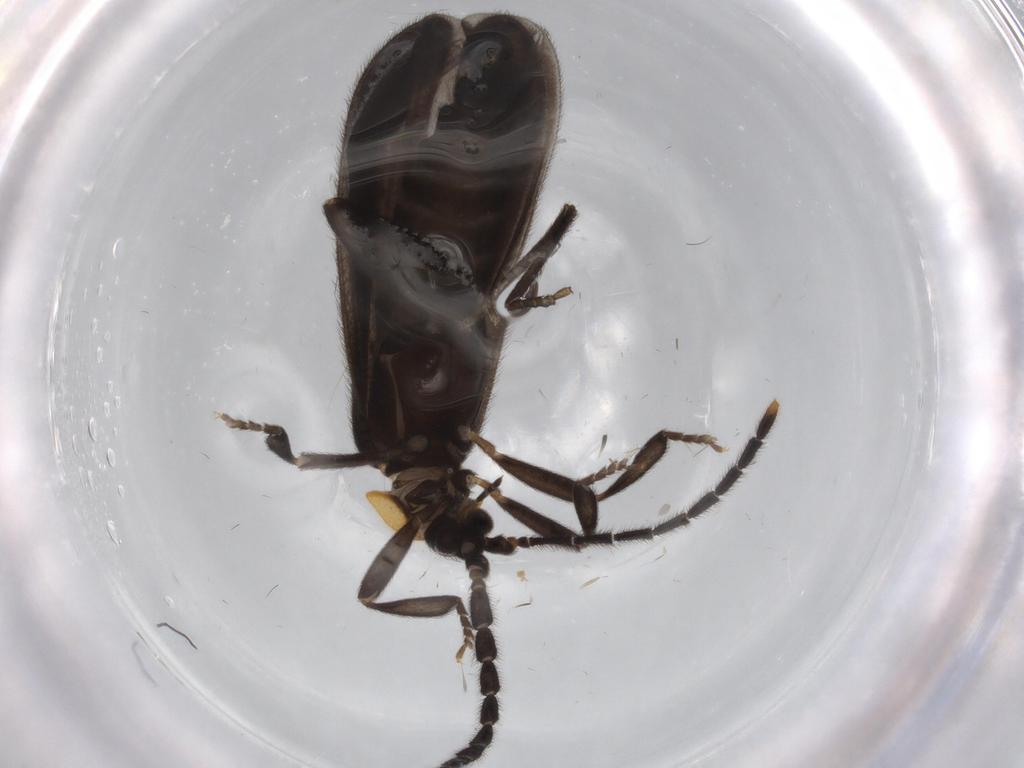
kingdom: Animalia
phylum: Arthropoda
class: Insecta
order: Coleoptera
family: Lycidae
